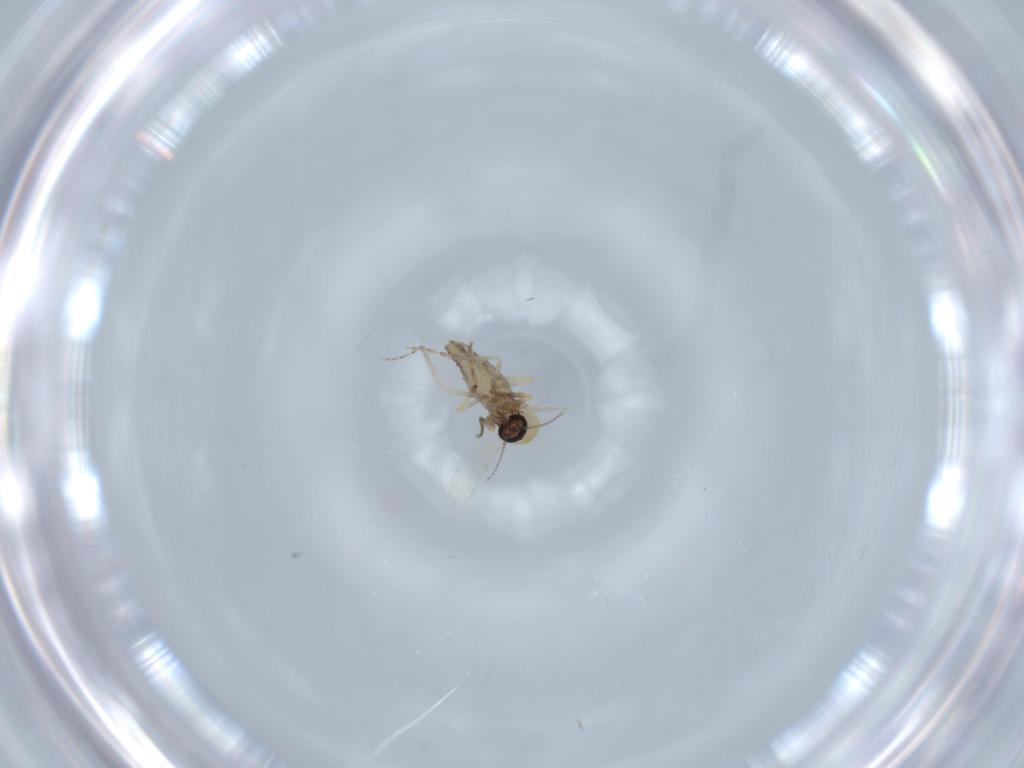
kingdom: Animalia
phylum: Arthropoda
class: Insecta
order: Diptera
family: Ceratopogonidae
